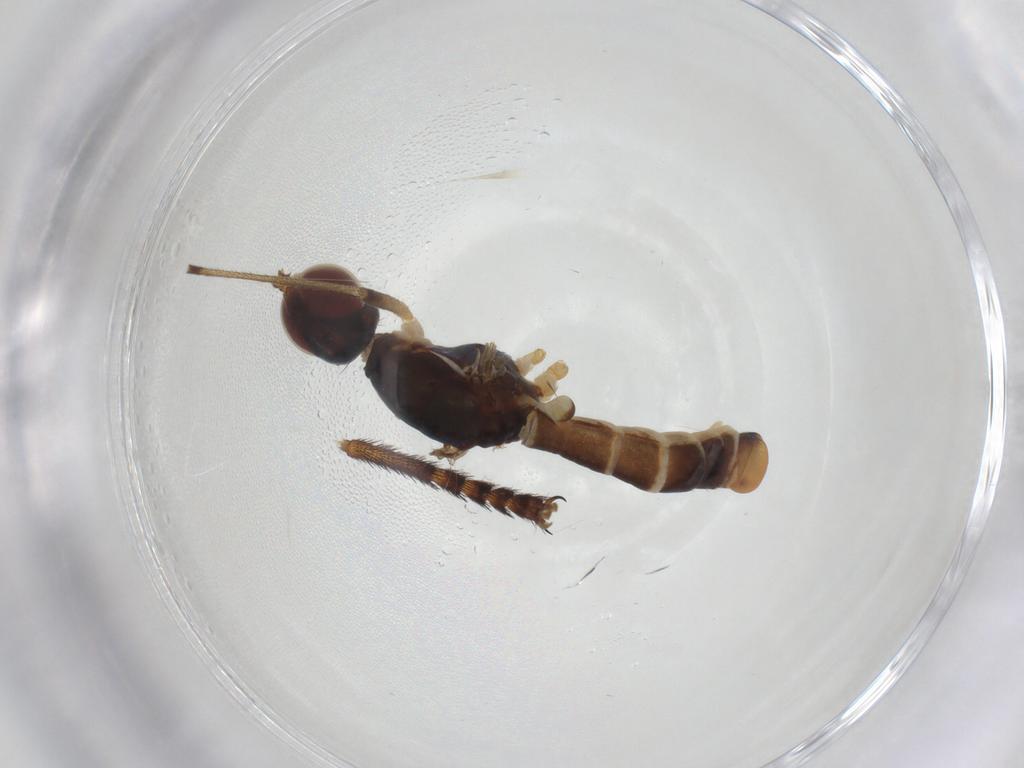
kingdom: Animalia
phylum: Arthropoda
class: Insecta
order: Diptera
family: Micropezidae
